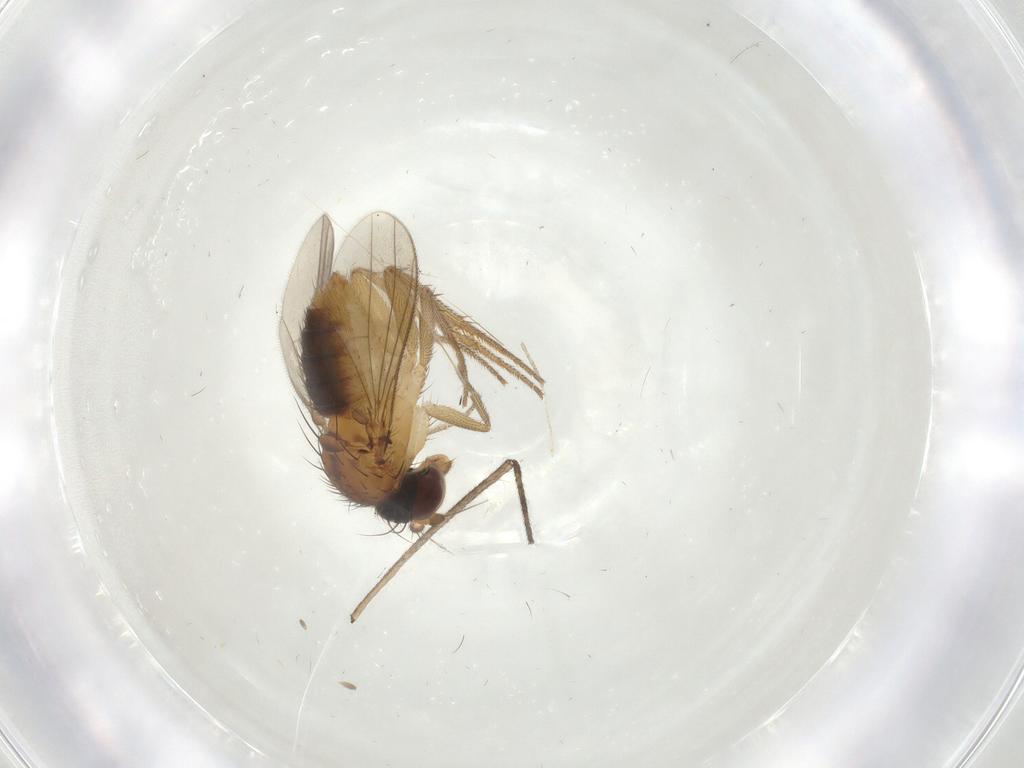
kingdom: Animalia
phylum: Arthropoda
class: Insecta
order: Diptera
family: Dolichopodidae
